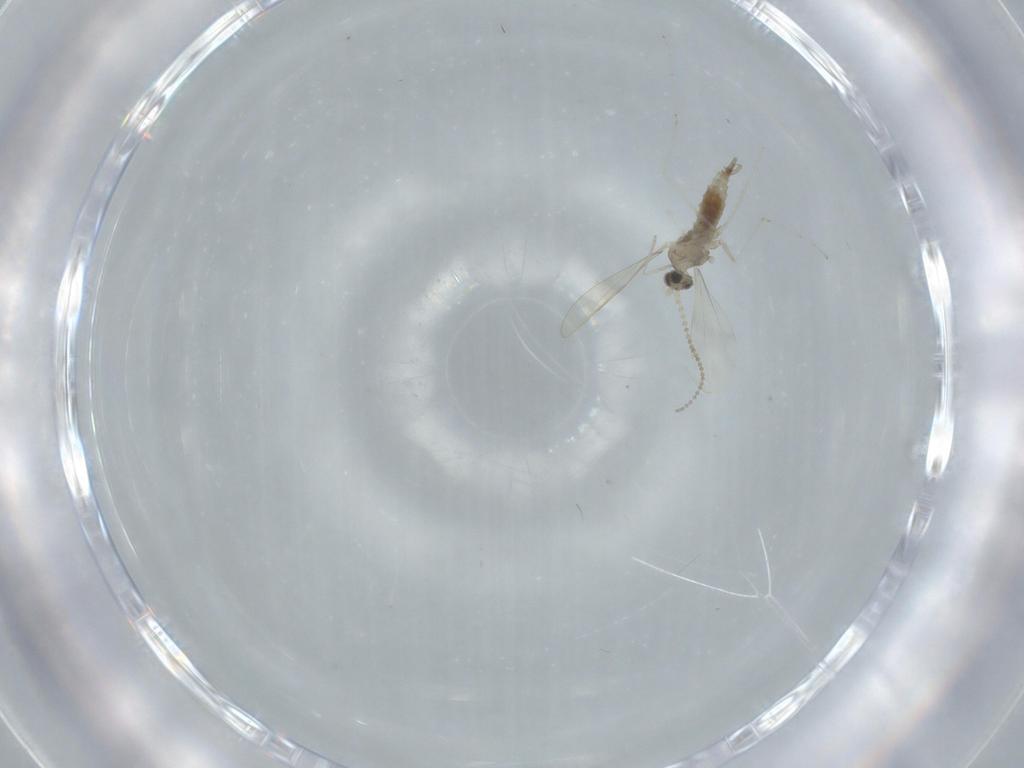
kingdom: Animalia
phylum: Arthropoda
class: Insecta
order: Diptera
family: Cecidomyiidae
